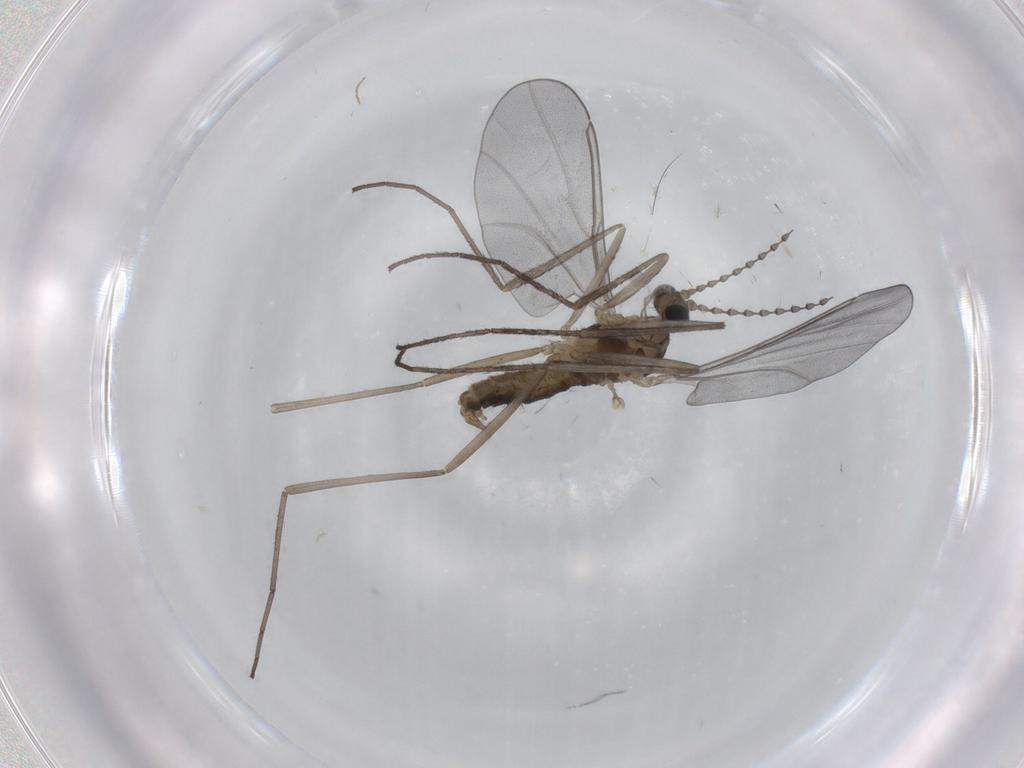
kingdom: Animalia
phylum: Arthropoda
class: Insecta
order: Diptera
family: Cecidomyiidae
